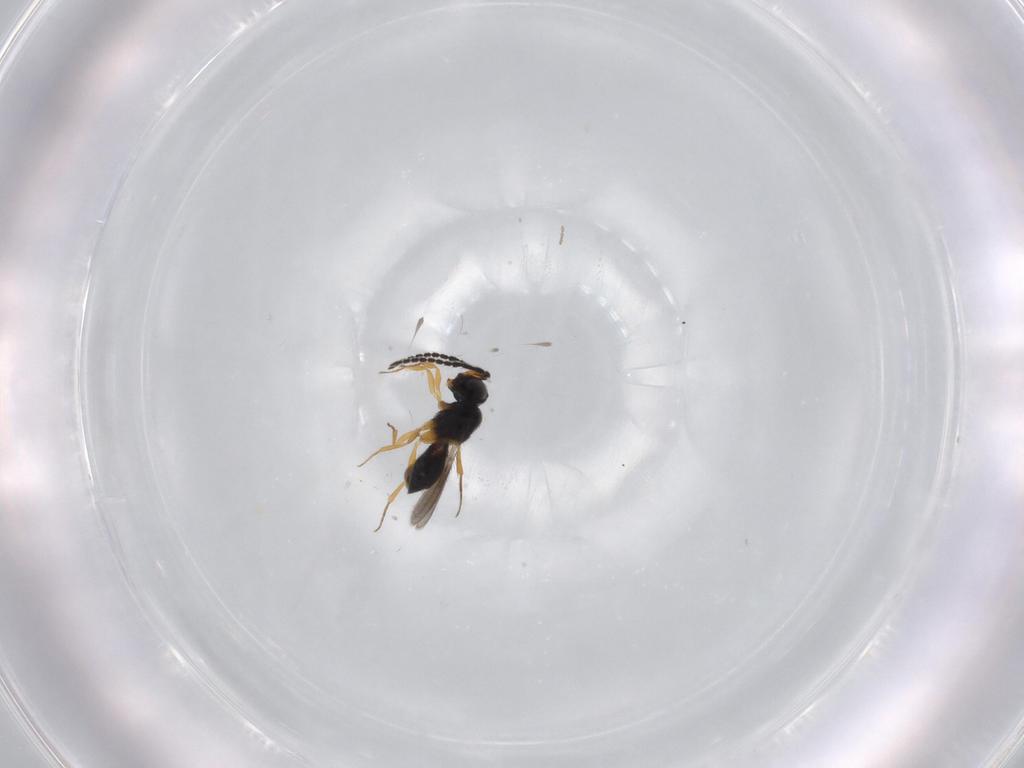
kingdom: Animalia
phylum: Arthropoda
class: Insecta
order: Hymenoptera
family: Scelionidae
